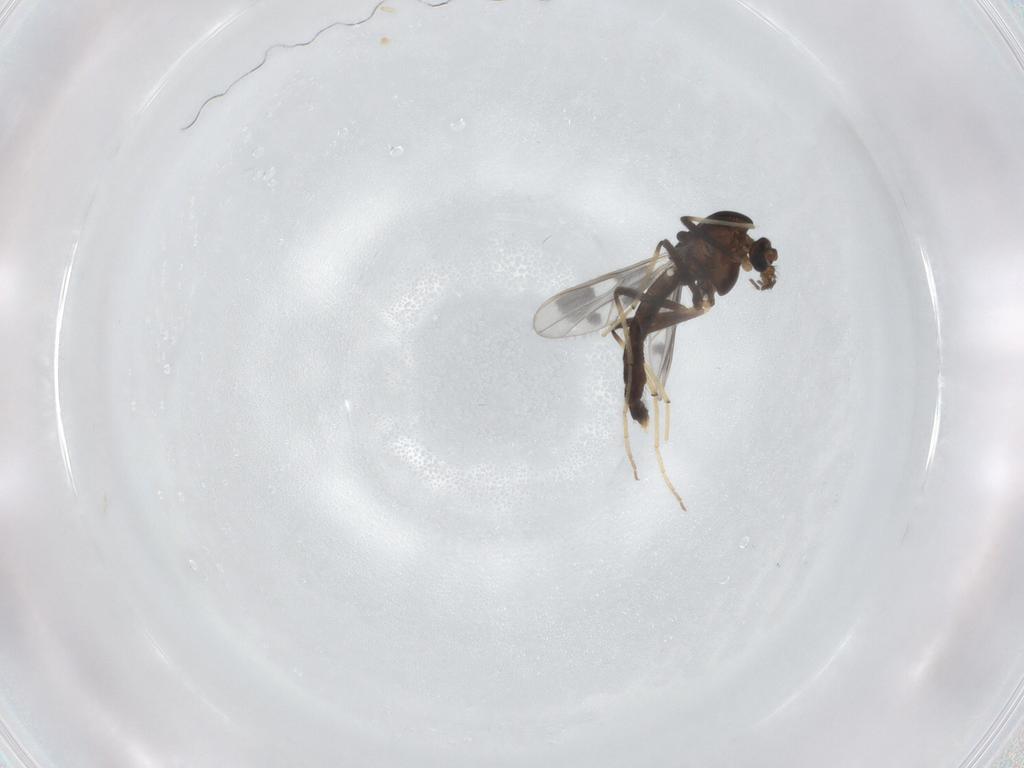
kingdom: Animalia
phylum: Arthropoda
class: Insecta
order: Diptera
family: Chironomidae
